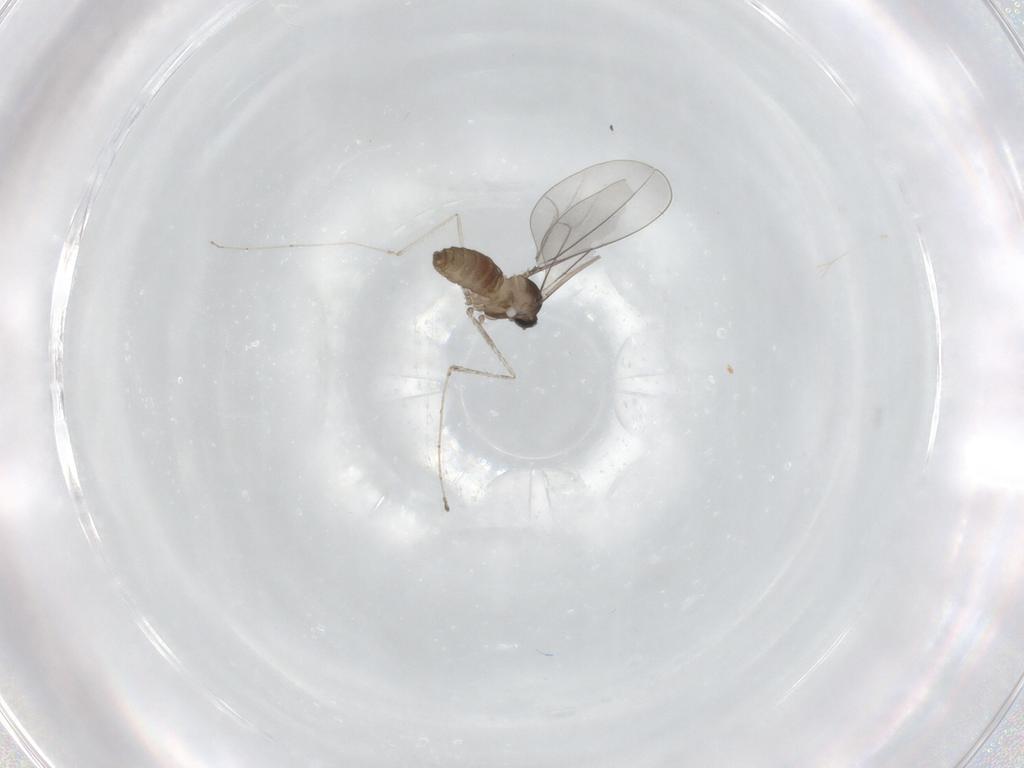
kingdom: Animalia
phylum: Arthropoda
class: Insecta
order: Diptera
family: Cecidomyiidae
